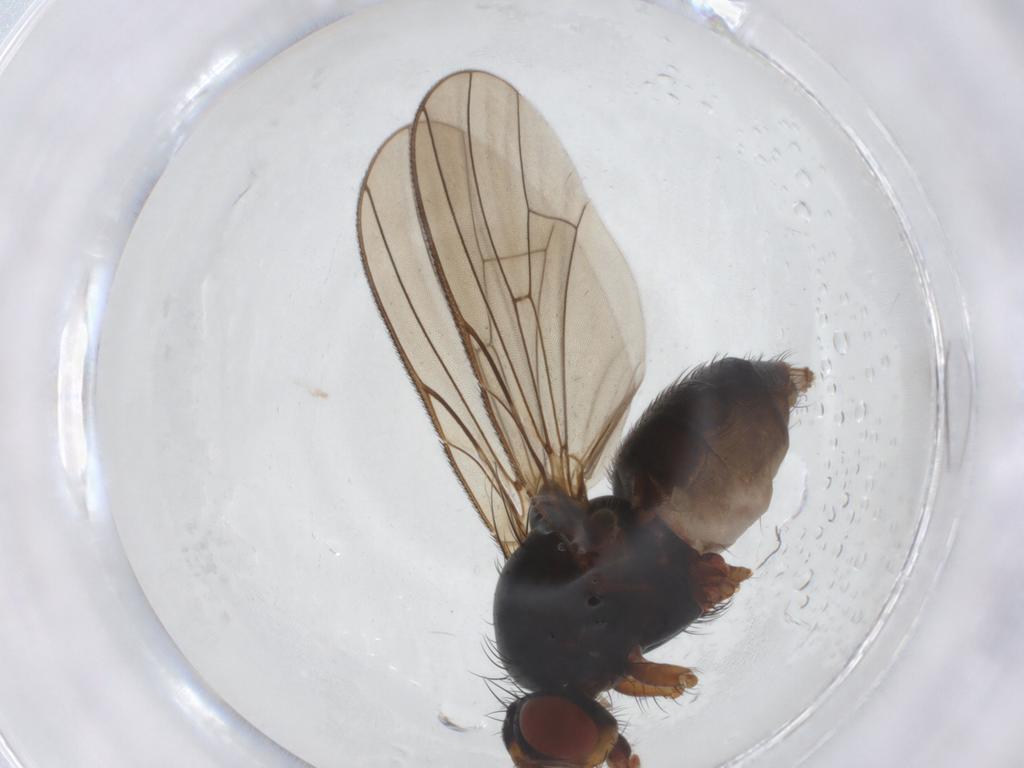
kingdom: Animalia
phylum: Arthropoda
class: Insecta
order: Diptera
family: Anthomyiidae
